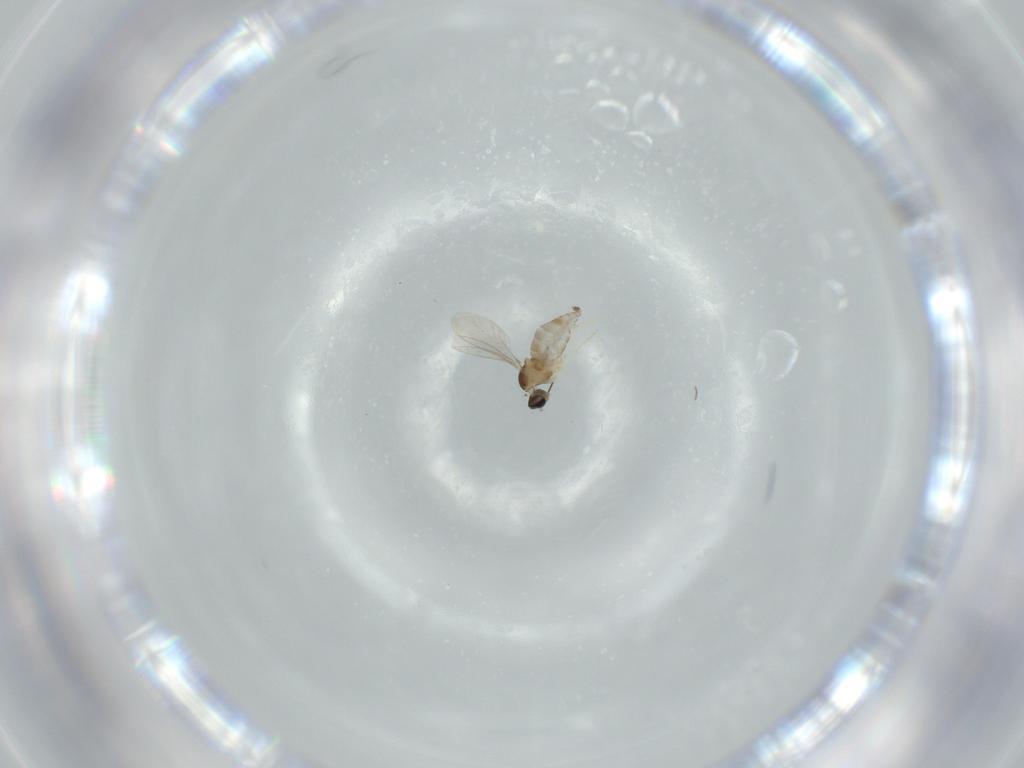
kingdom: Animalia
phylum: Arthropoda
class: Insecta
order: Diptera
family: Cecidomyiidae
